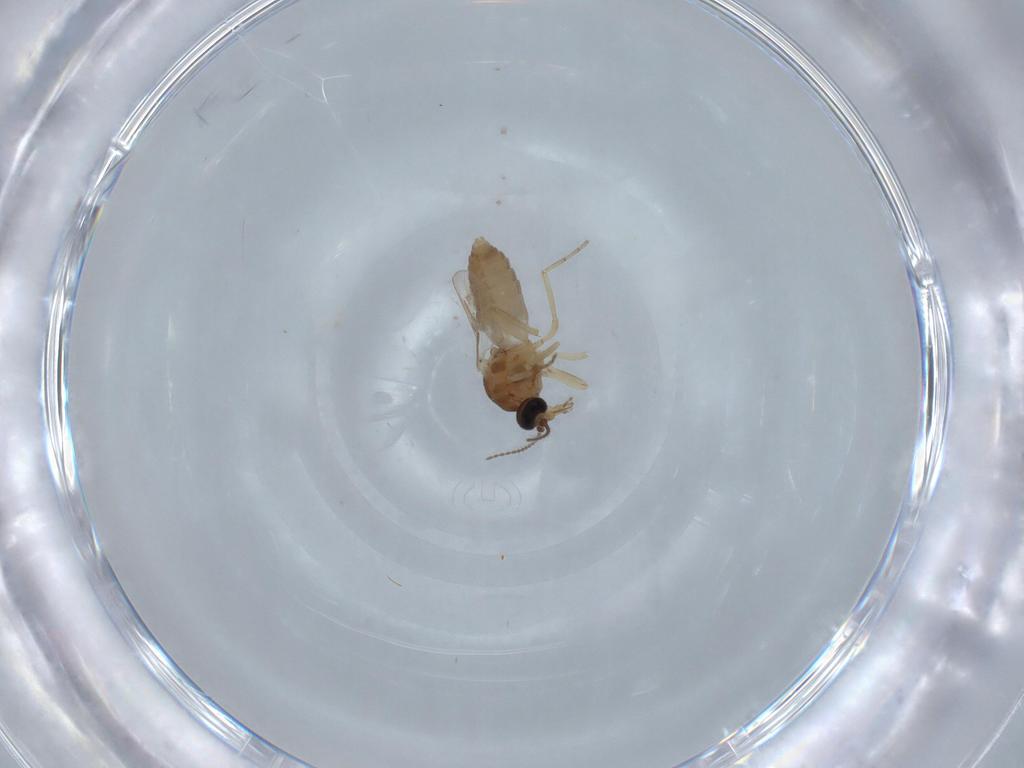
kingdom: Animalia
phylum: Arthropoda
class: Insecta
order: Diptera
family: Ceratopogonidae
